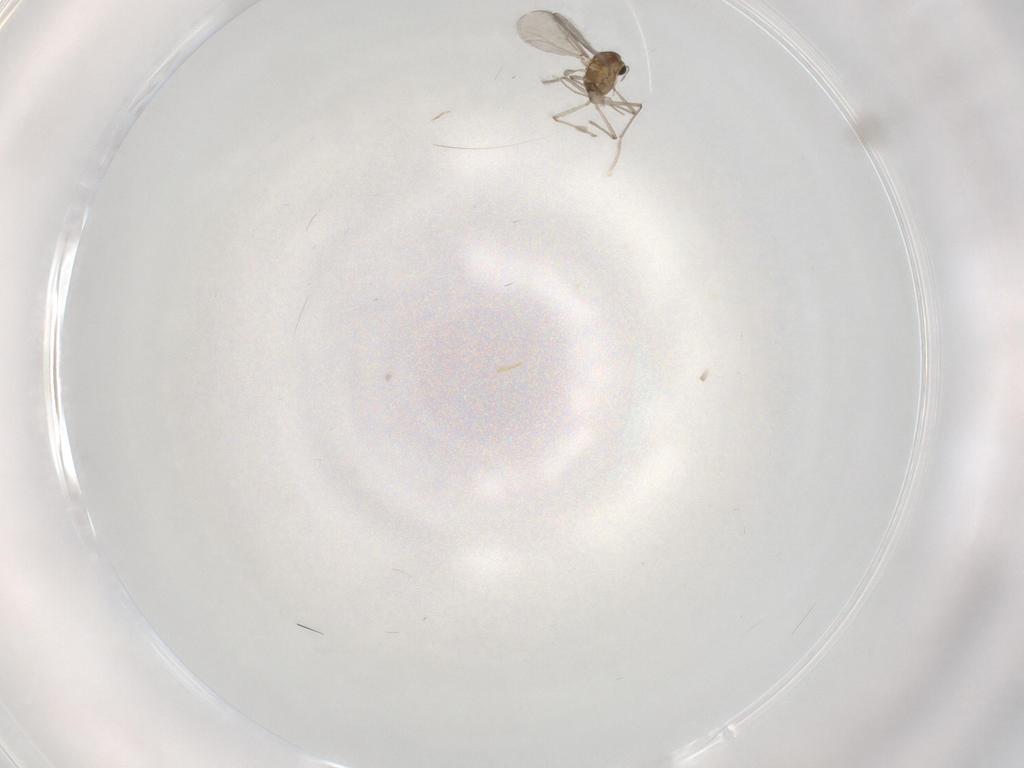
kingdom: Animalia
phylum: Arthropoda
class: Insecta
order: Diptera
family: Chironomidae
